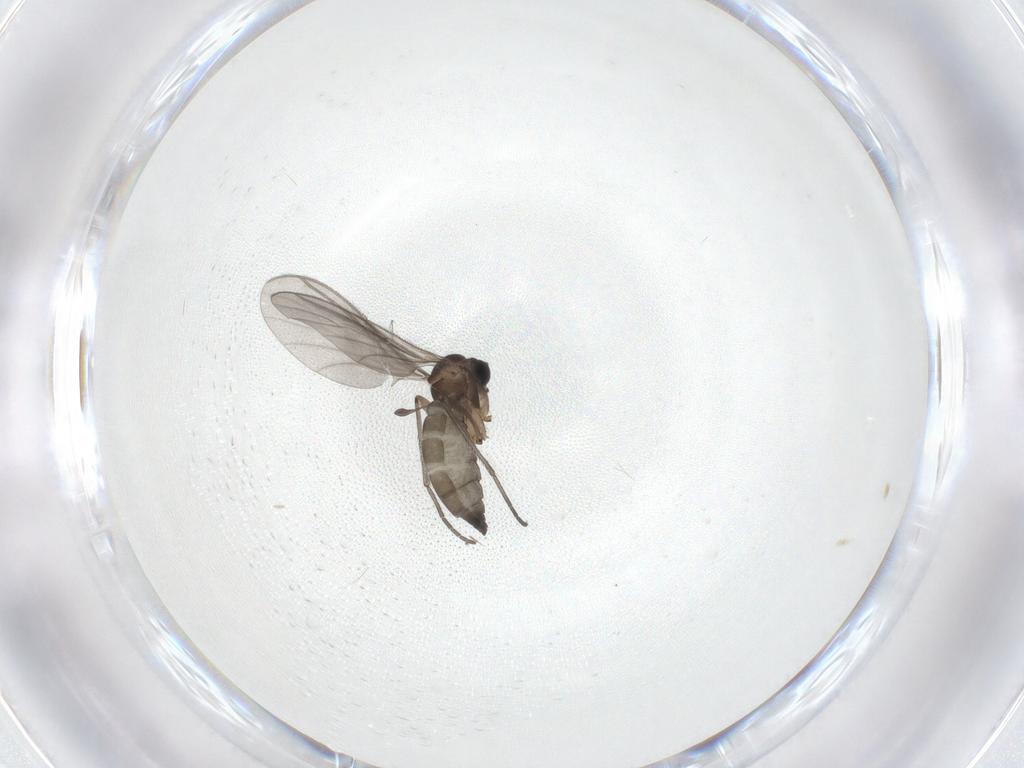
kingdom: Animalia
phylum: Arthropoda
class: Insecta
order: Diptera
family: Sciaridae
